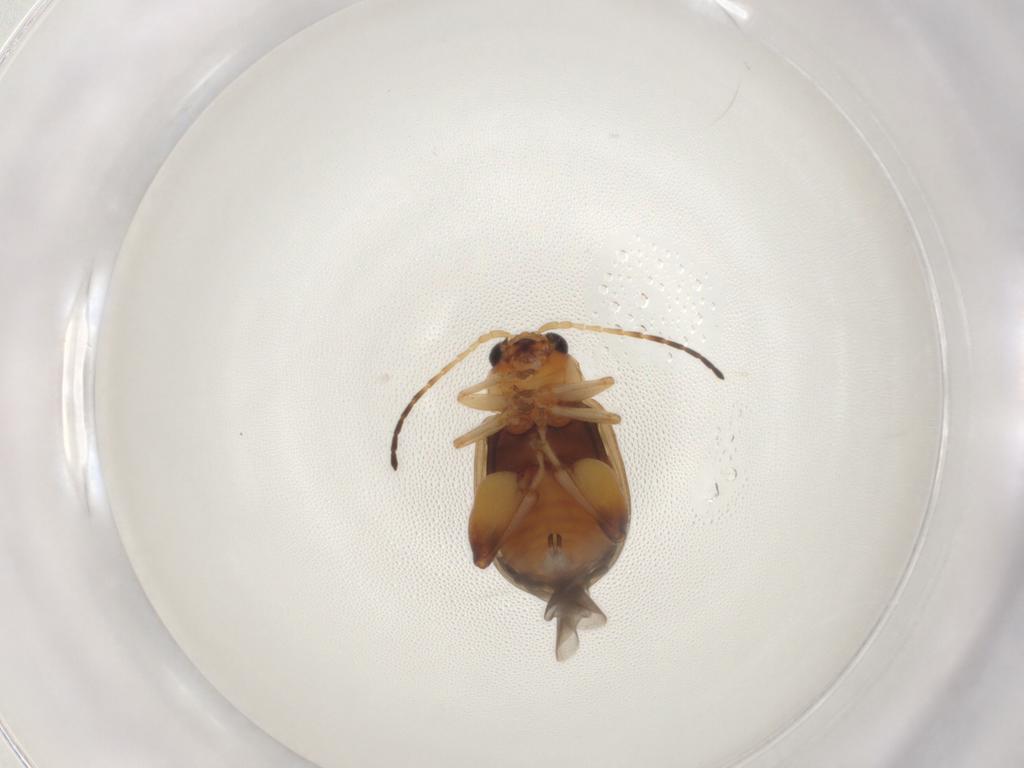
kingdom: Animalia
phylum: Arthropoda
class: Insecta
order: Coleoptera
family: Chrysomelidae
